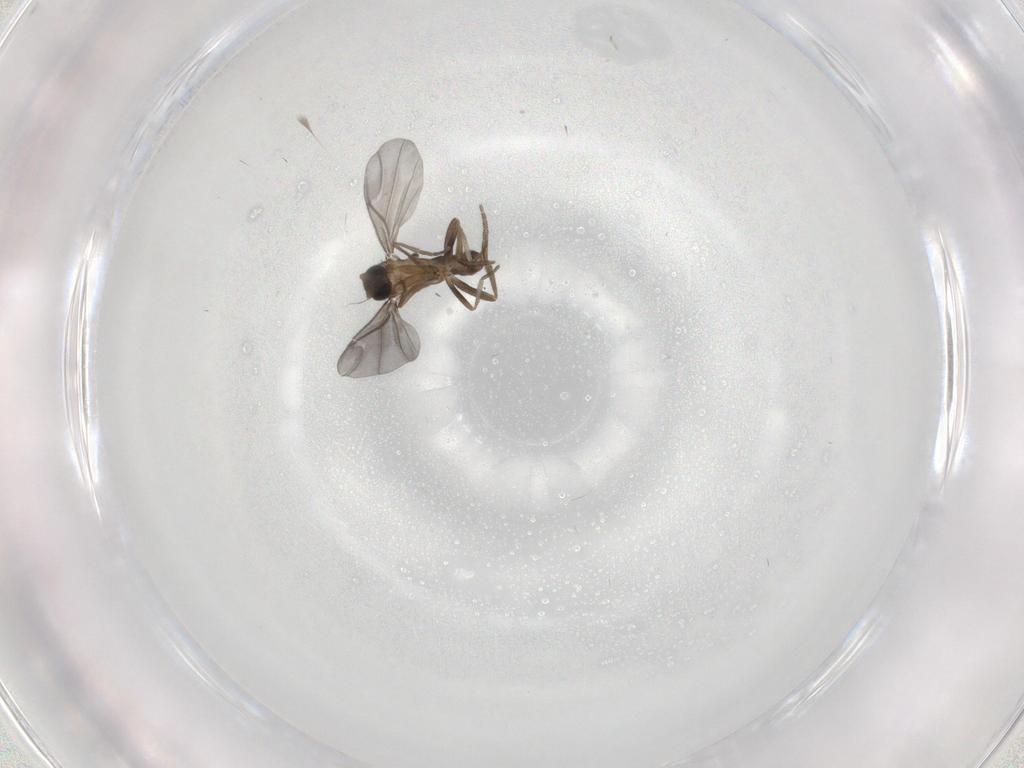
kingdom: Animalia
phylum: Arthropoda
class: Insecta
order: Diptera
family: Phoridae
